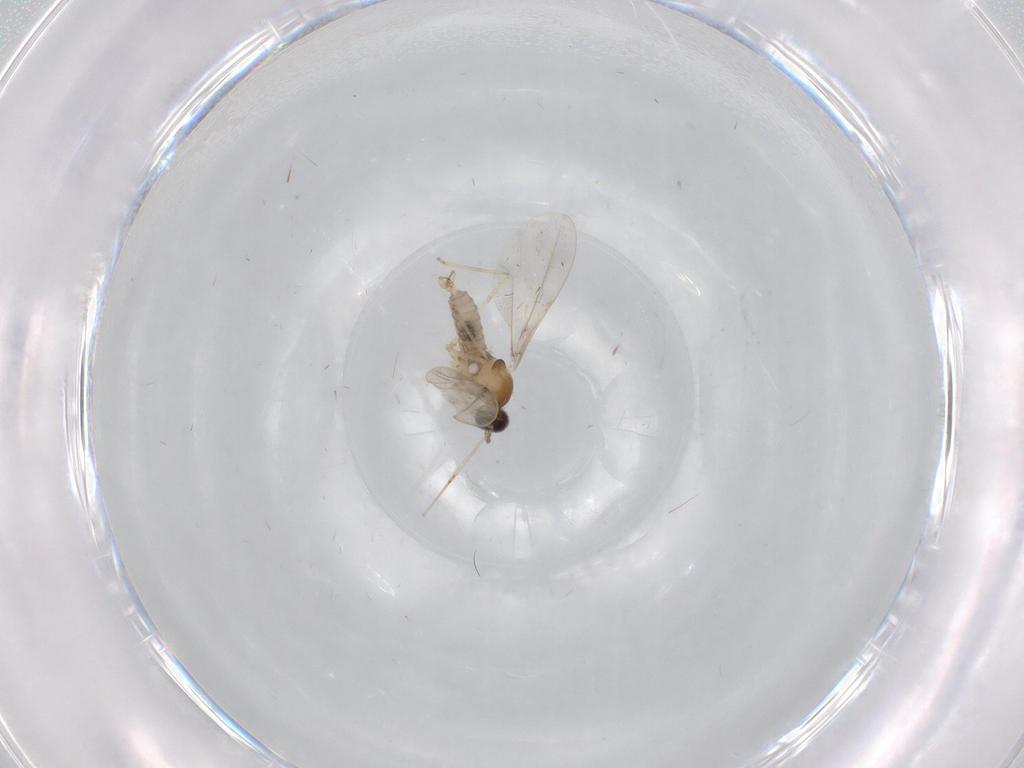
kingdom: Animalia
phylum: Arthropoda
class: Insecta
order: Diptera
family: Cecidomyiidae
